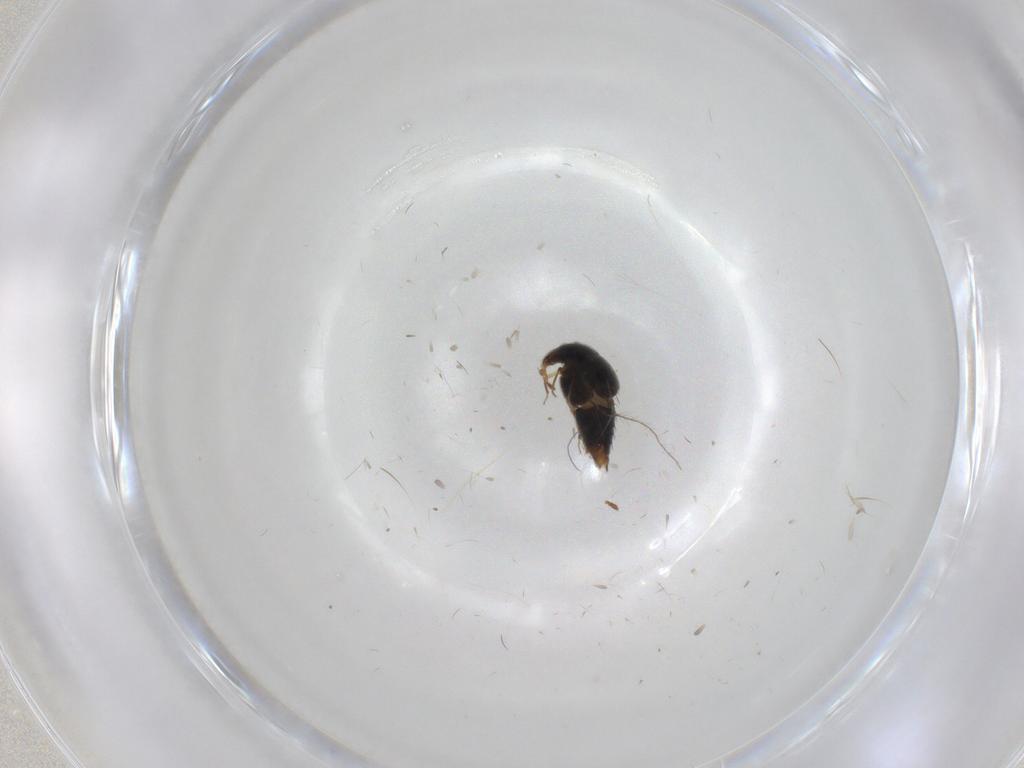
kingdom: Animalia
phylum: Arthropoda
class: Insecta
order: Coleoptera
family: Staphylinidae
